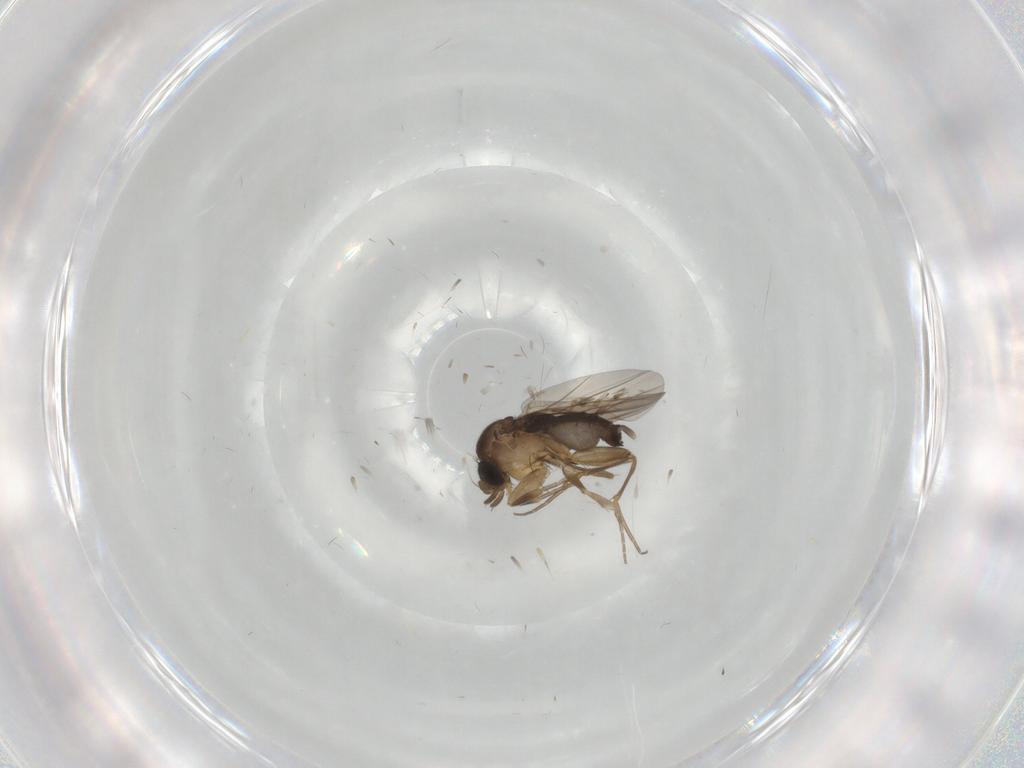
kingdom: Animalia
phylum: Arthropoda
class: Insecta
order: Diptera
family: Phoridae
